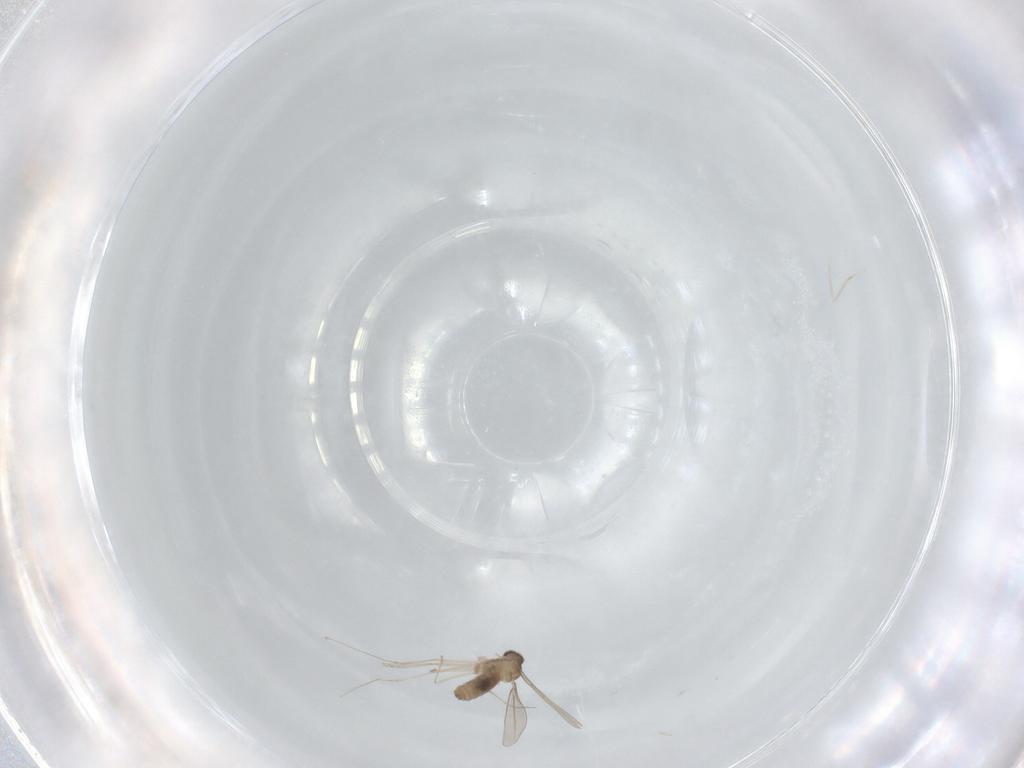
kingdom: Animalia
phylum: Arthropoda
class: Insecta
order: Diptera
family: Cecidomyiidae
